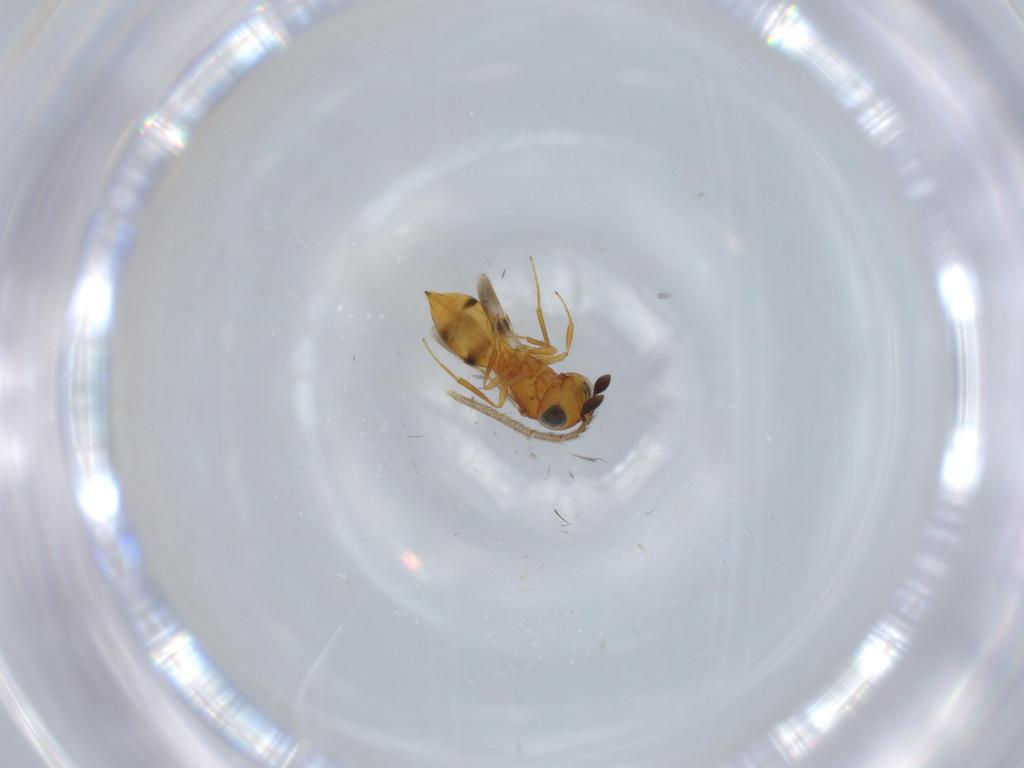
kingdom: Animalia
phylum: Arthropoda
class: Insecta
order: Hymenoptera
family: Scelionidae
